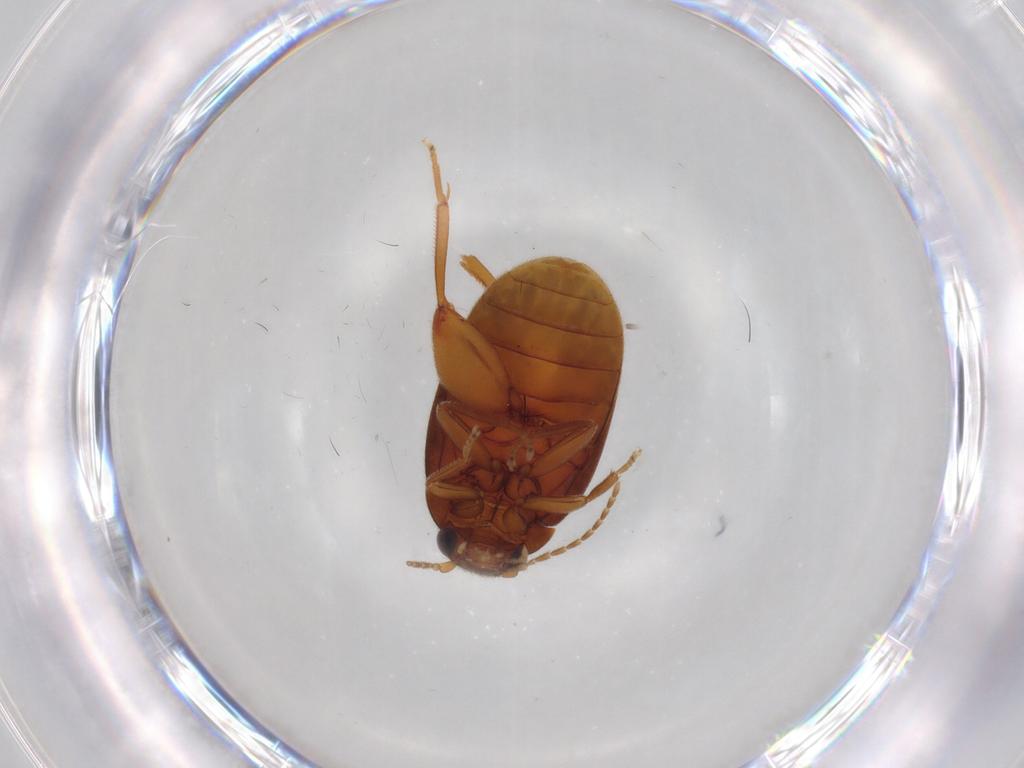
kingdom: Animalia
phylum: Arthropoda
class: Insecta
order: Coleoptera
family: Scirtidae
